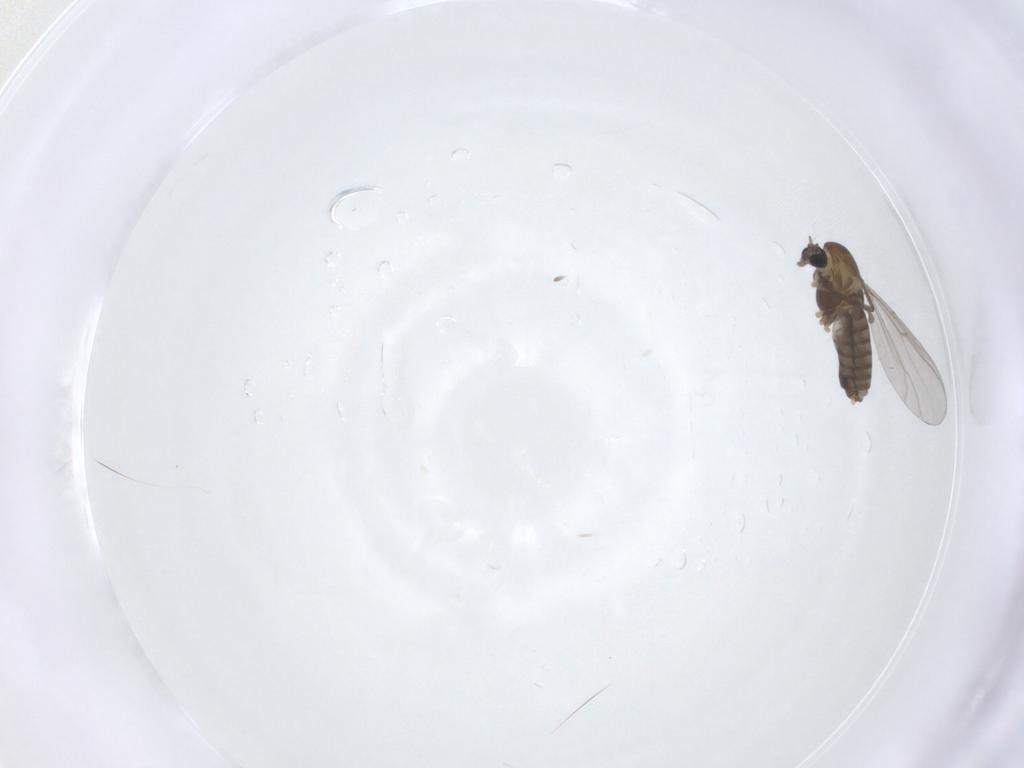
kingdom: Animalia
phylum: Arthropoda
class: Insecta
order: Diptera
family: Chironomidae
